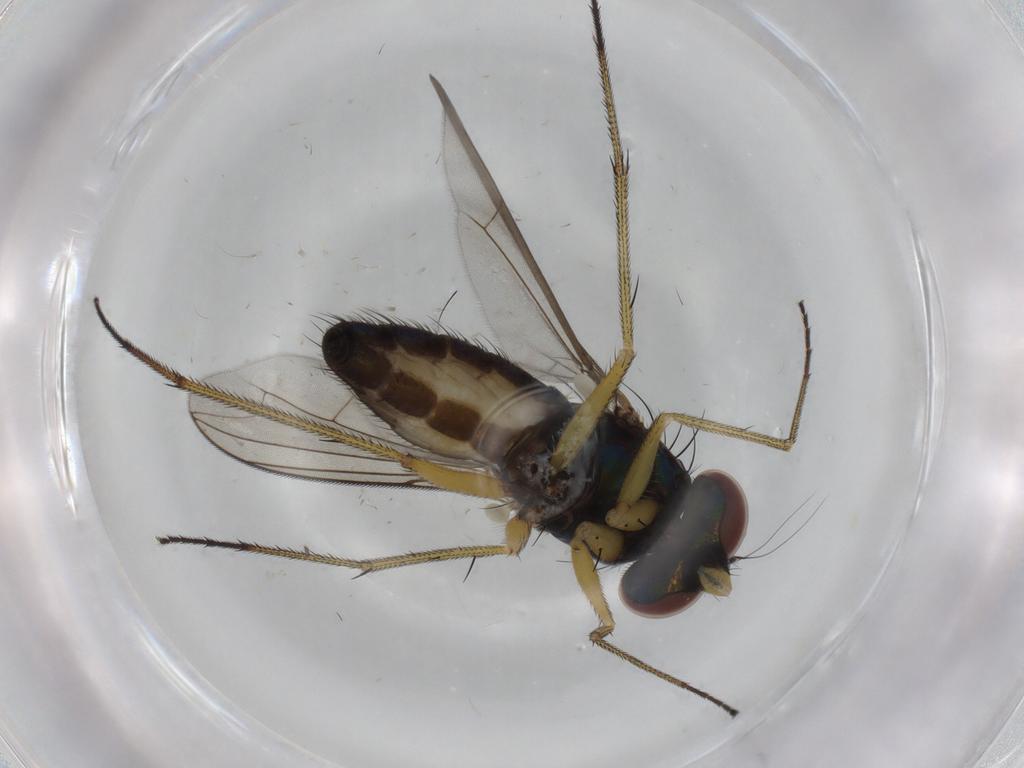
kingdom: Animalia
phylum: Arthropoda
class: Insecta
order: Diptera
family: Dolichopodidae
